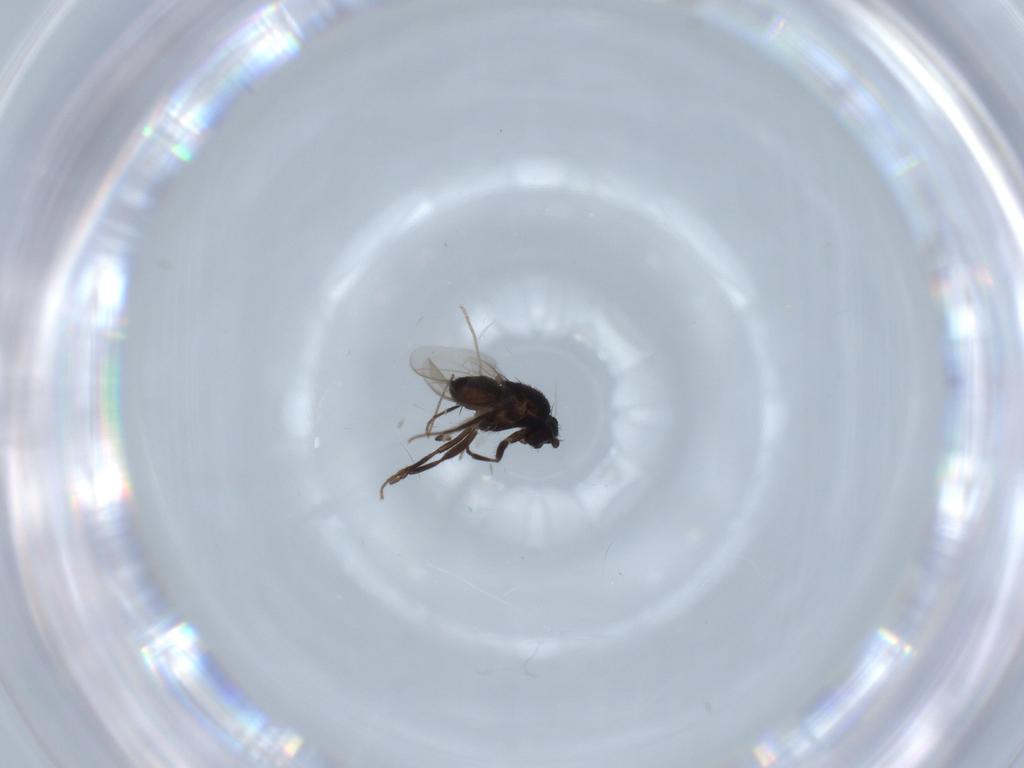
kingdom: Animalia
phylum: Arthropoda
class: Insecta
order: Diptera
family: Sphaeroceridae
